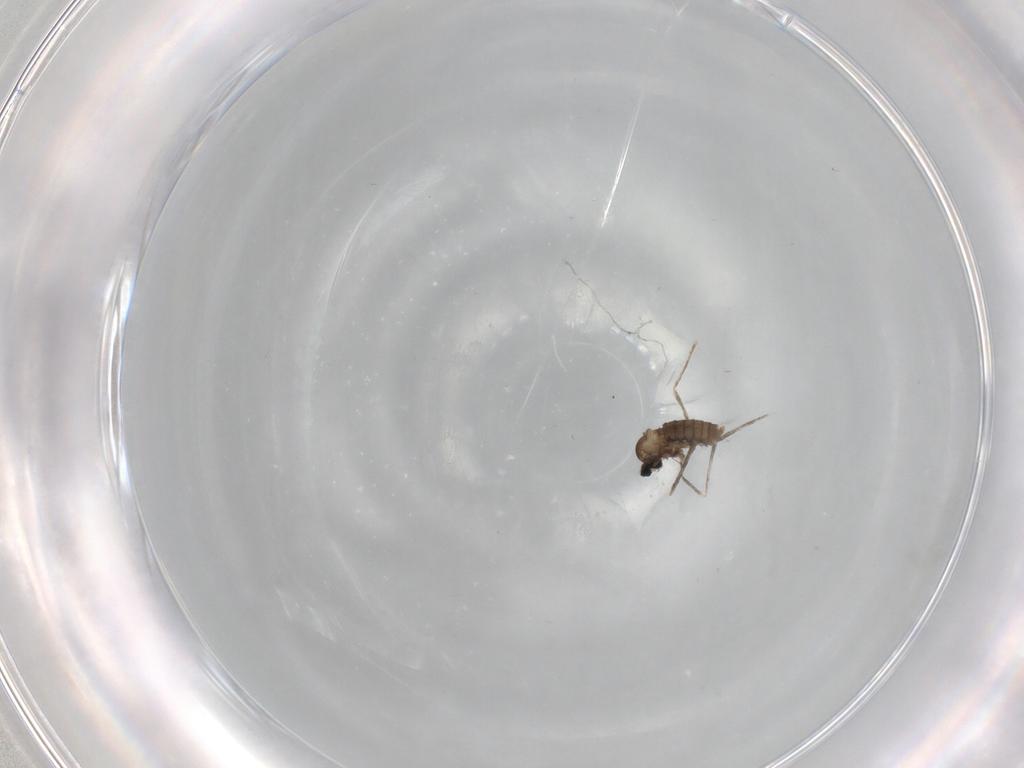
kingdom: Animalia
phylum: Arthropoda
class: Insecta
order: Diptera
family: Cecidomyiidae
